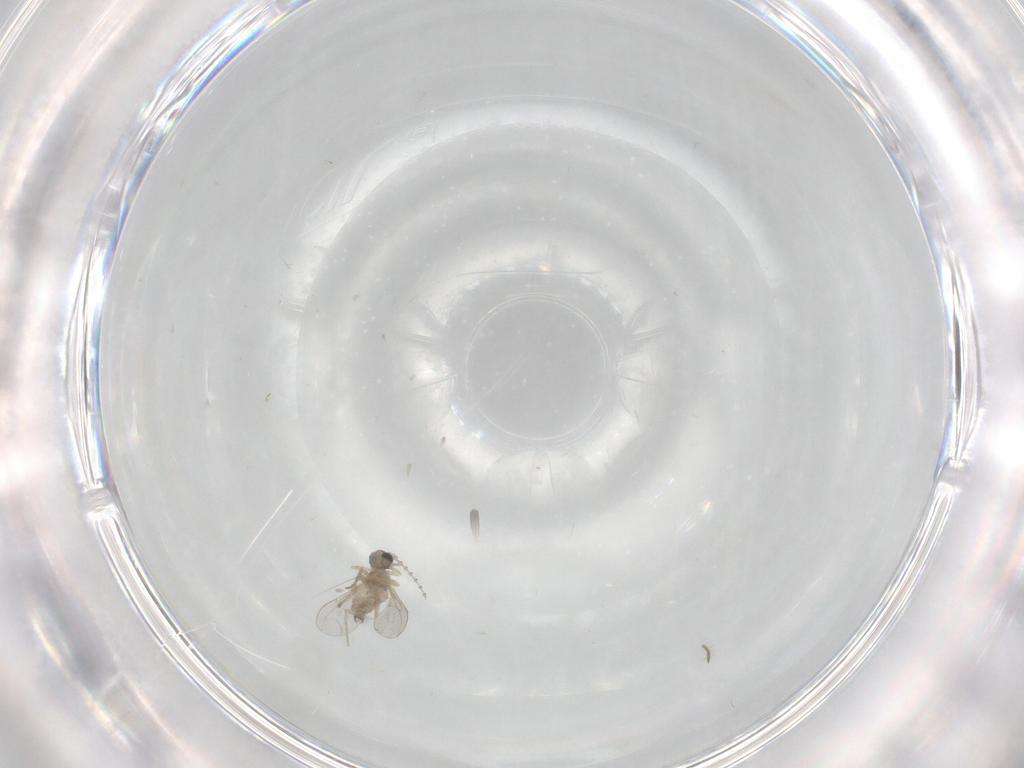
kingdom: Animalia
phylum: Arthropoda
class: Insecta
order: Diptera
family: Cecidomyiidae
